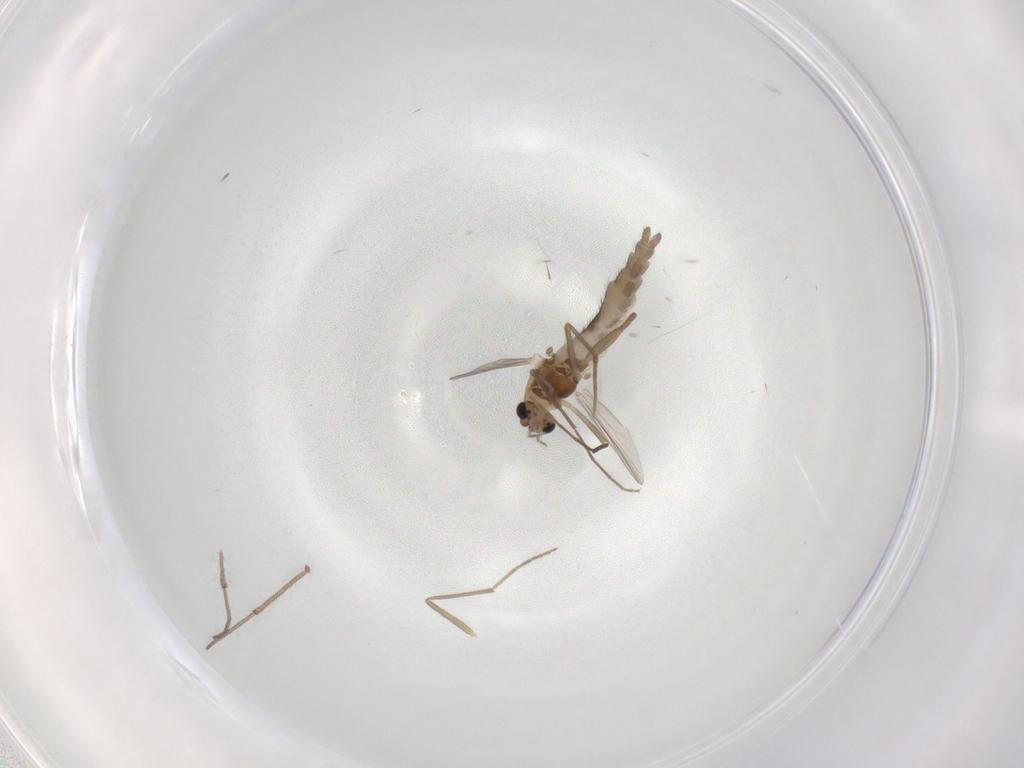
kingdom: Animalia
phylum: Arthropoda
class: Insecta
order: Diptera
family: Chironomidae
